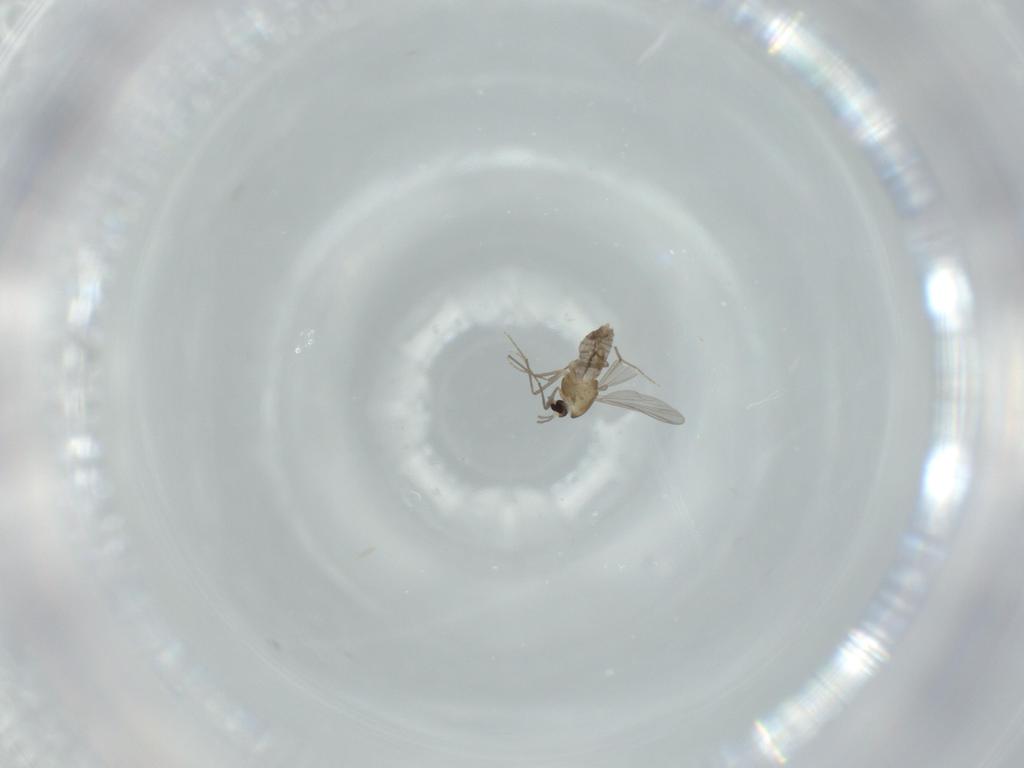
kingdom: Animalia
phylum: Arthropoda
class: Insecta
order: Diptera
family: Chironomidae
